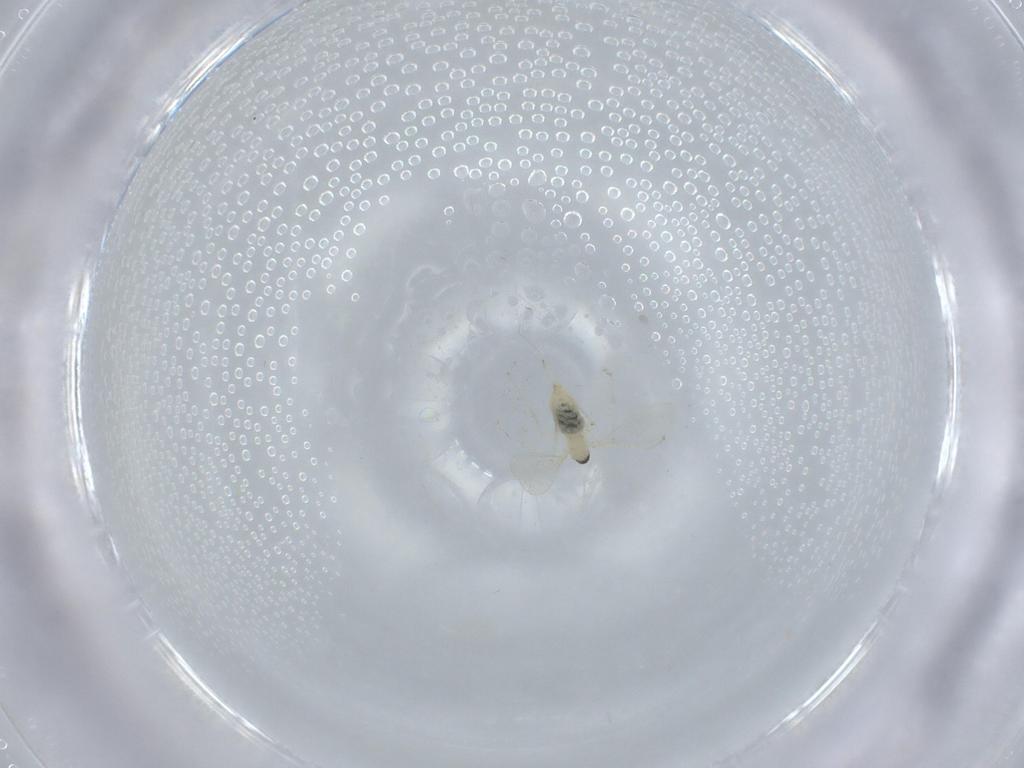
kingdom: Animalia
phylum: Arthropoda
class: Insecta
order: Diptera
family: Cecidomyiidae
